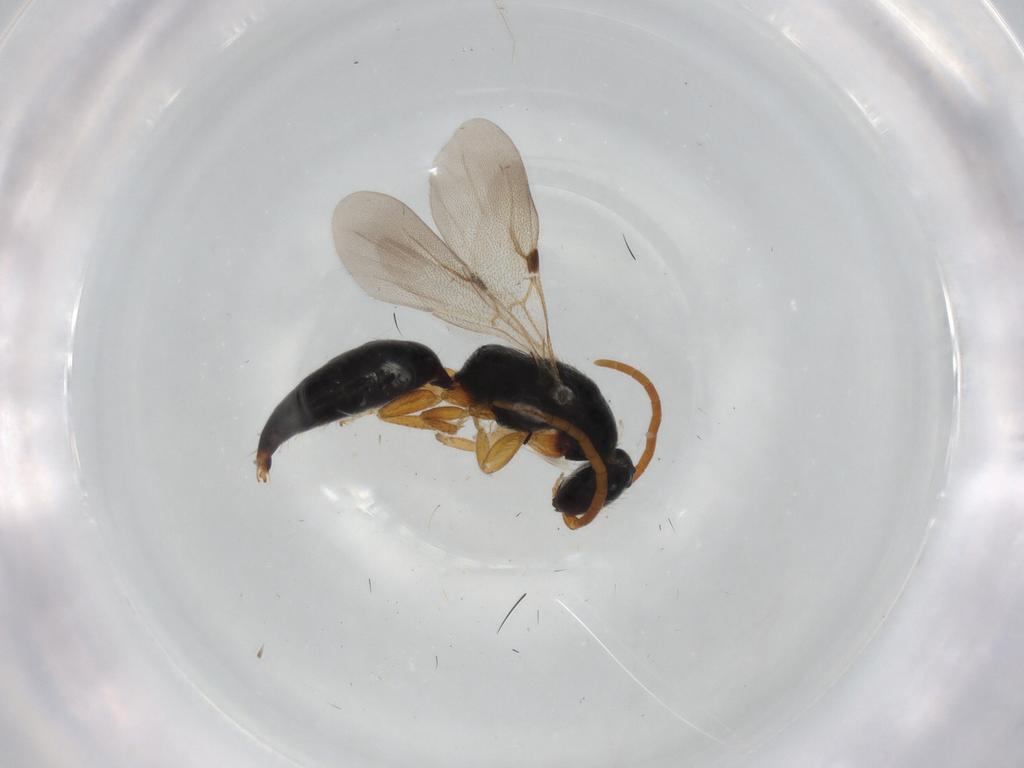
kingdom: Animalia
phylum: Arthropoda
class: Insecta
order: Hymenoptera
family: Bethylidae
